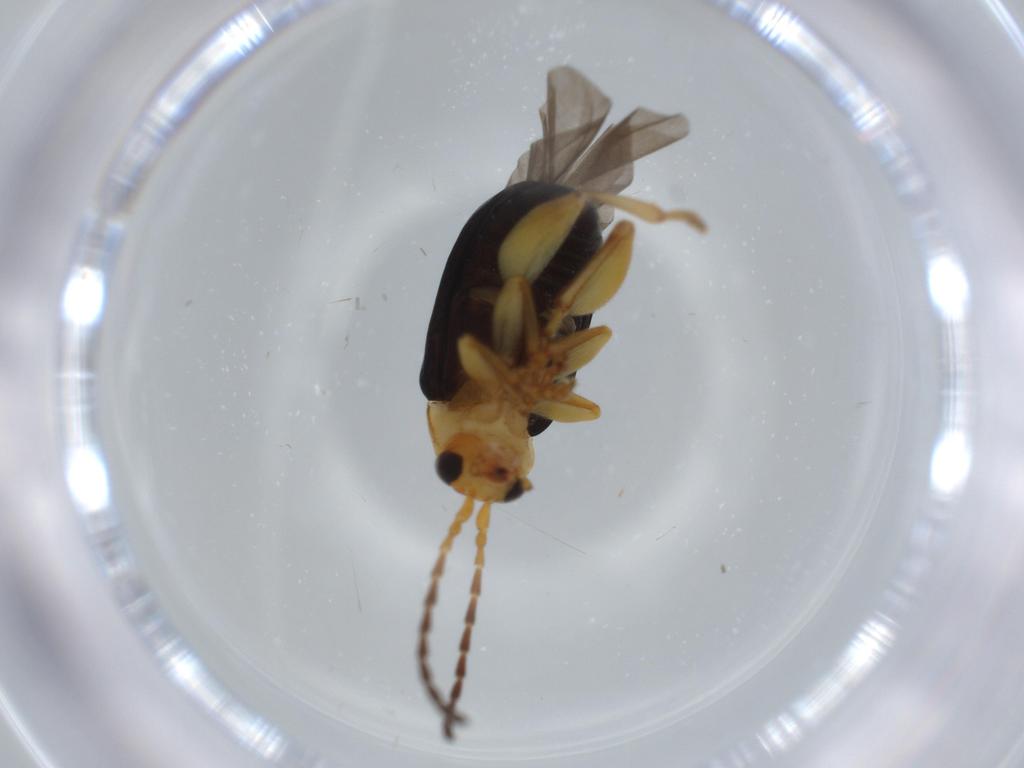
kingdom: Animalia
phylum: Arthropoda
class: Insecta
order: Coleoptera
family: Chrysomelidae
